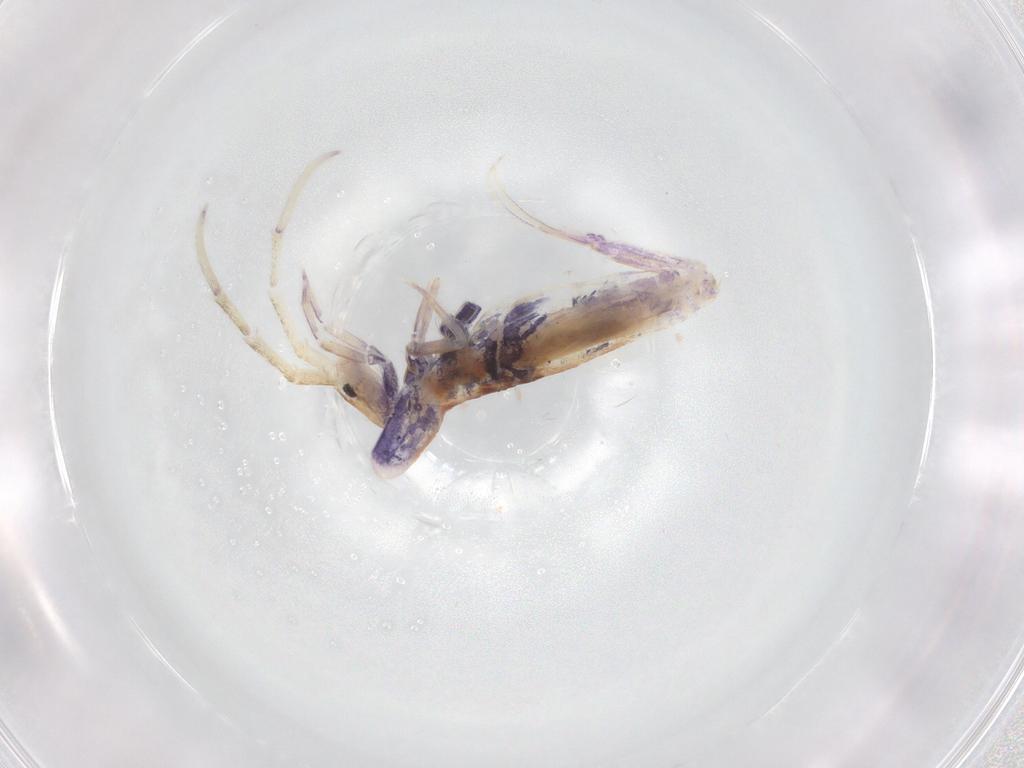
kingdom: Animalia
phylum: Arthropoda
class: Collembola
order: Entomobryomorpha
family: Entomobryidae
